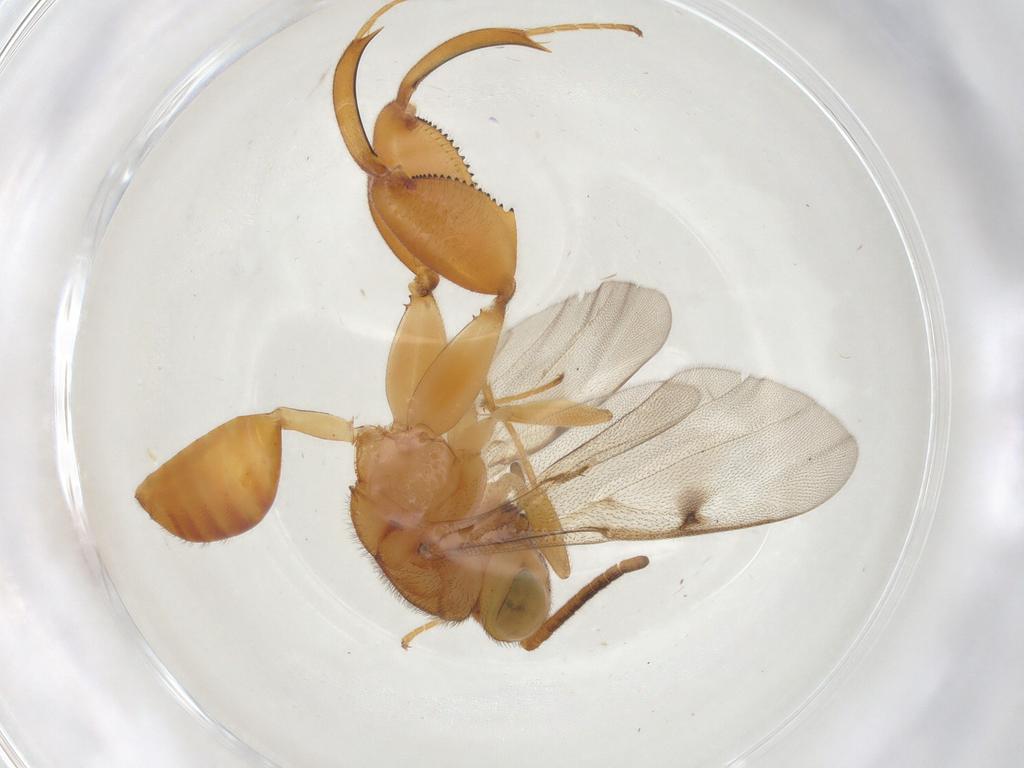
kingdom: Animalia
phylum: Arthropoda
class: Insecta
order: Hymenoptera
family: Chalcididae
